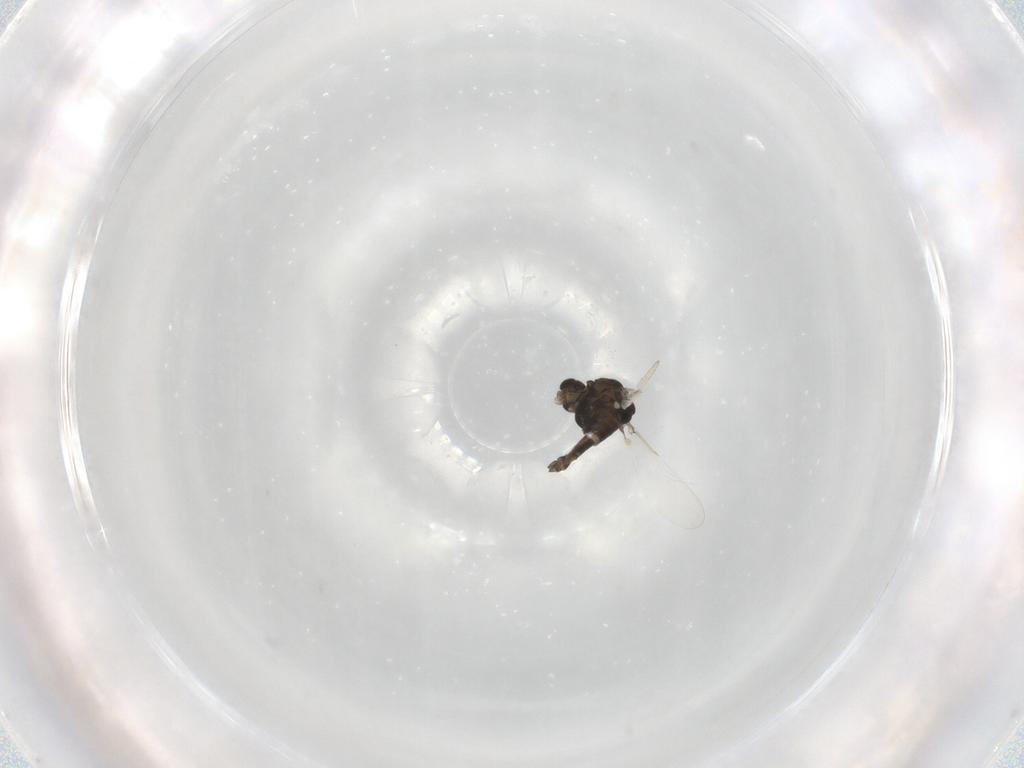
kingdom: Animalia
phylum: Arthropoda
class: Insecta
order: Diptera
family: Chironomidae
